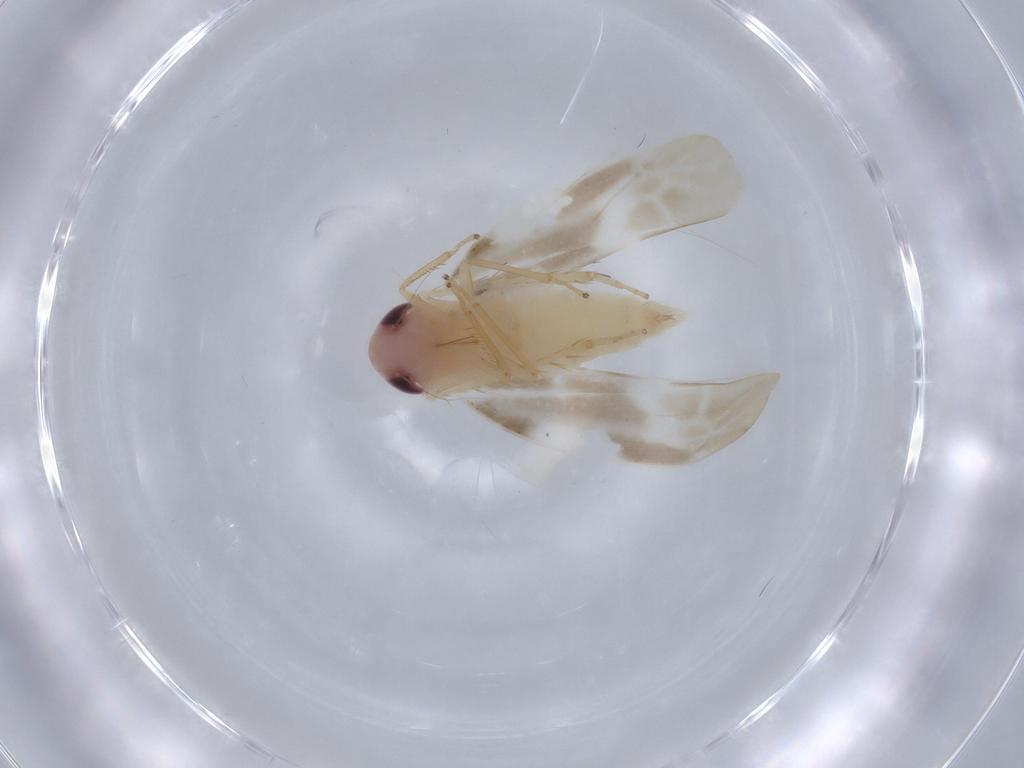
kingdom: Animalia
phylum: Arthropoda
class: Insecta
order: Hemiptera
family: Cicadellidae
